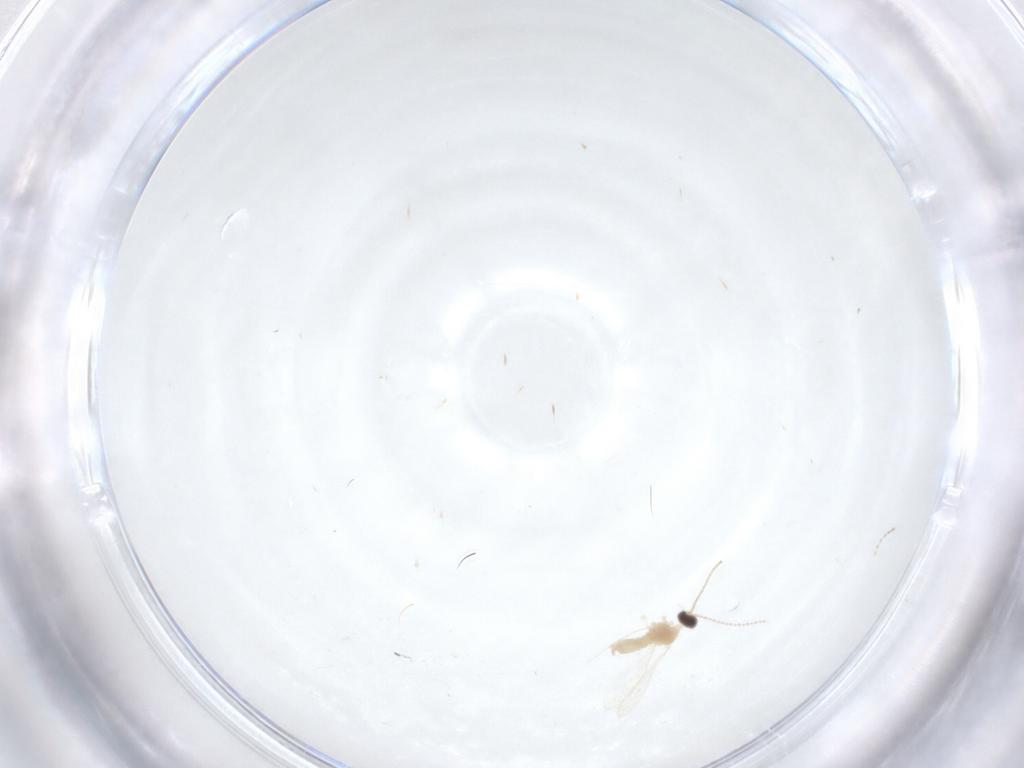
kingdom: Animalia
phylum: Arthropoda
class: Insecta
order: Diptera
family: Cecidomyiidae
